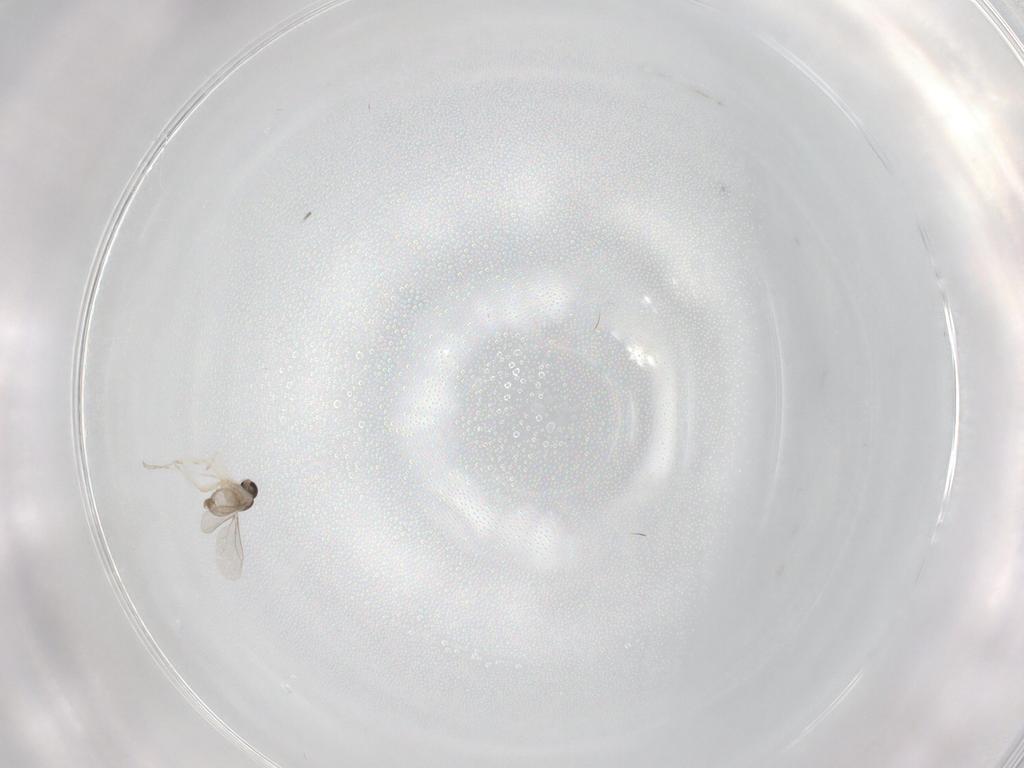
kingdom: Animalia
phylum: Arthropoda
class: Insecta
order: Diptera
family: Cecidomyiidae
